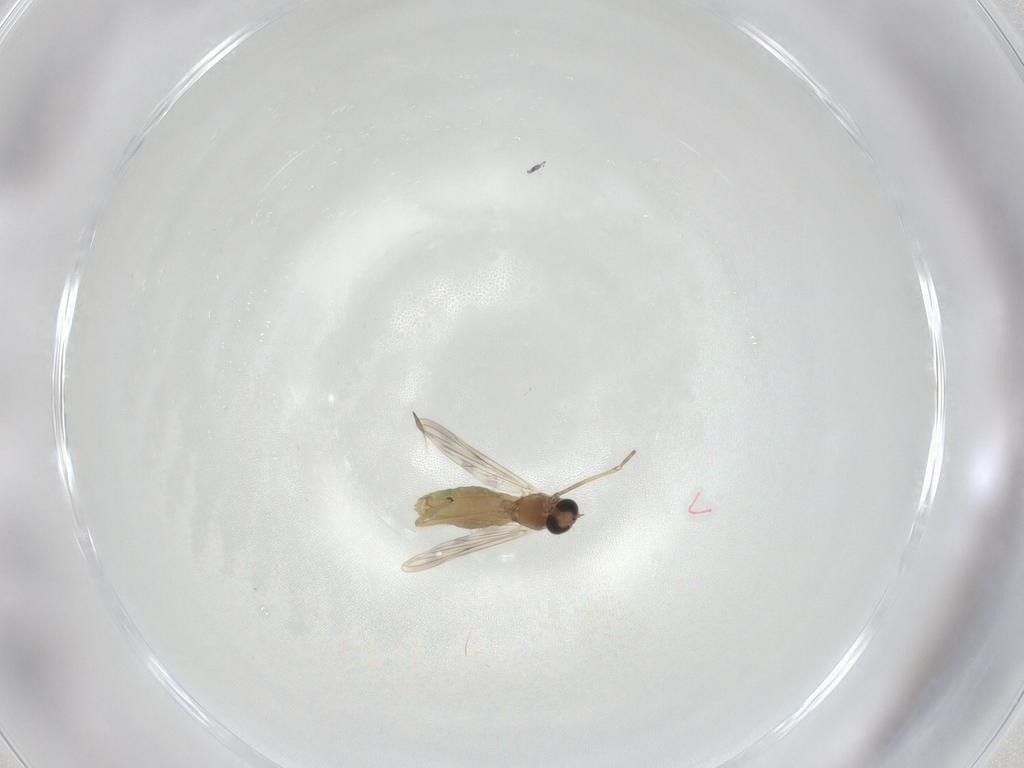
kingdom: Animalia
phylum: Arthropoda
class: Insecta
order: Diptera
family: Chironomidae
